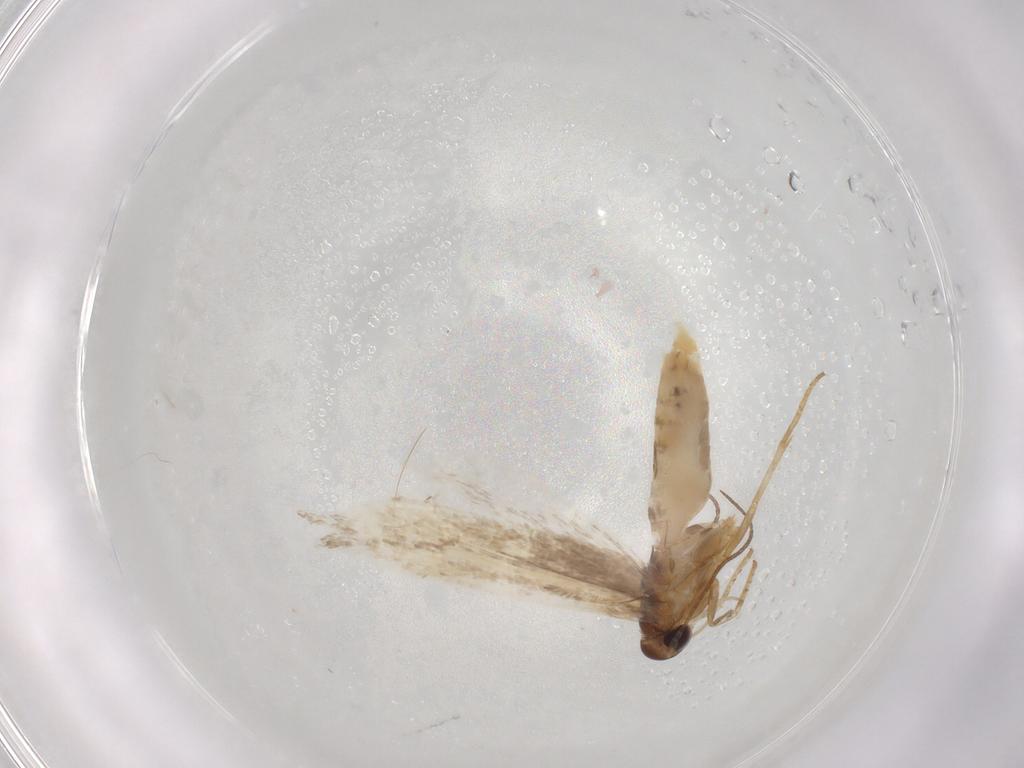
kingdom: Animalia
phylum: Arthropoda
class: Insecta
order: Lepidoptera
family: Cosmopterigidae
